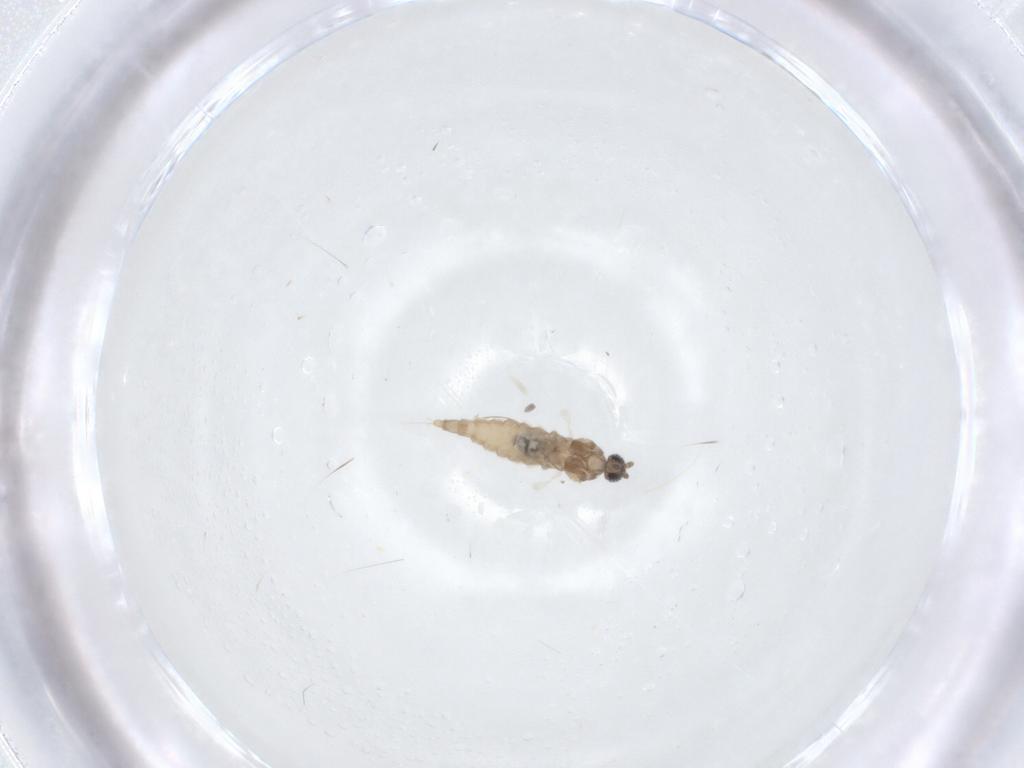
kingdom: Animalia
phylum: Arthropoda
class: Insecta
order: Diptera
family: Cecidomyiidae
